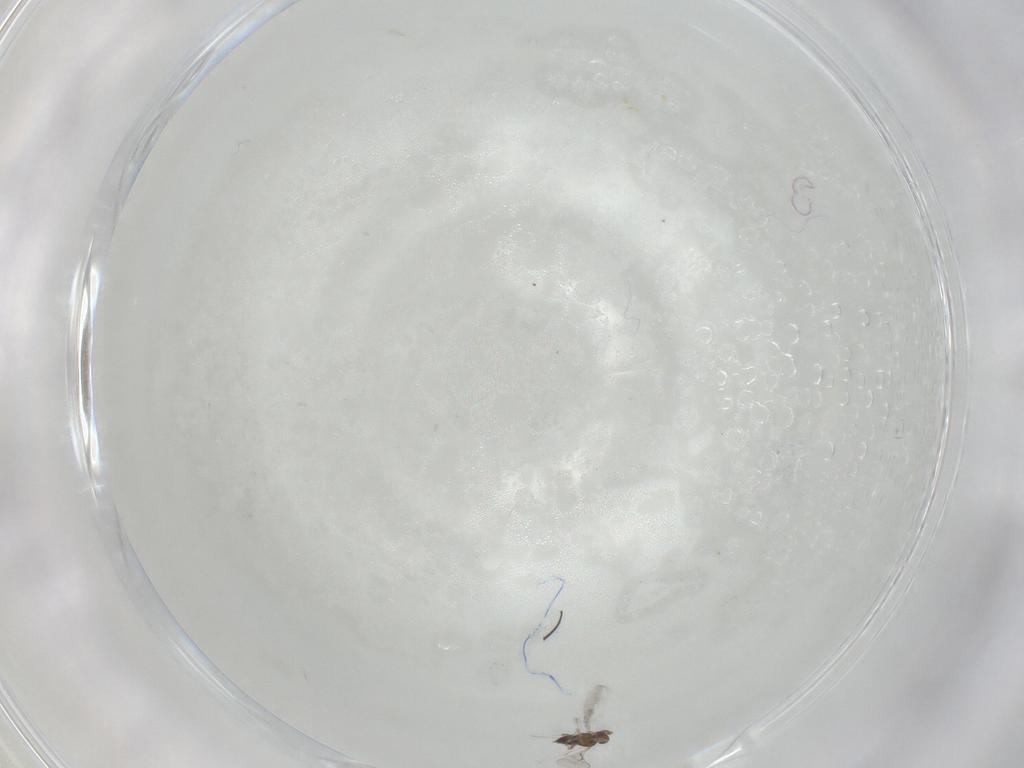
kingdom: Animalia
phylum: Arthropoda
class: Insecta
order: Hymenoptera
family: Trichogrammatidae
